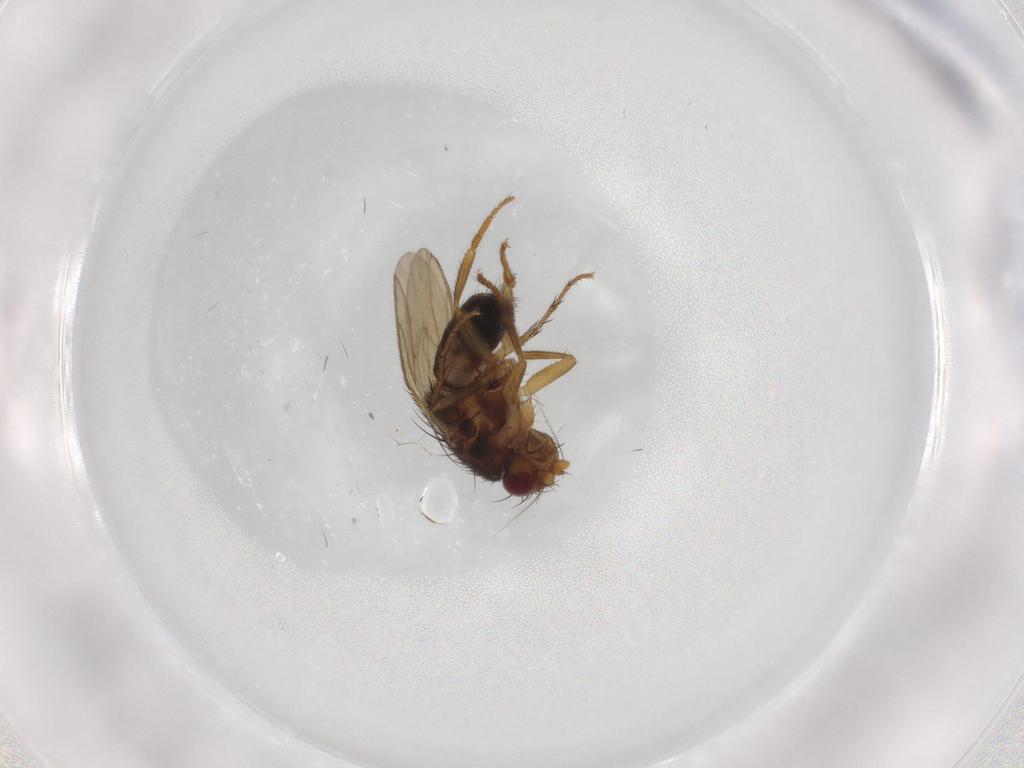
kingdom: Animalia
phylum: Arthropoda
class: Insecta
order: Diptera
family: Sphaeroceridae
